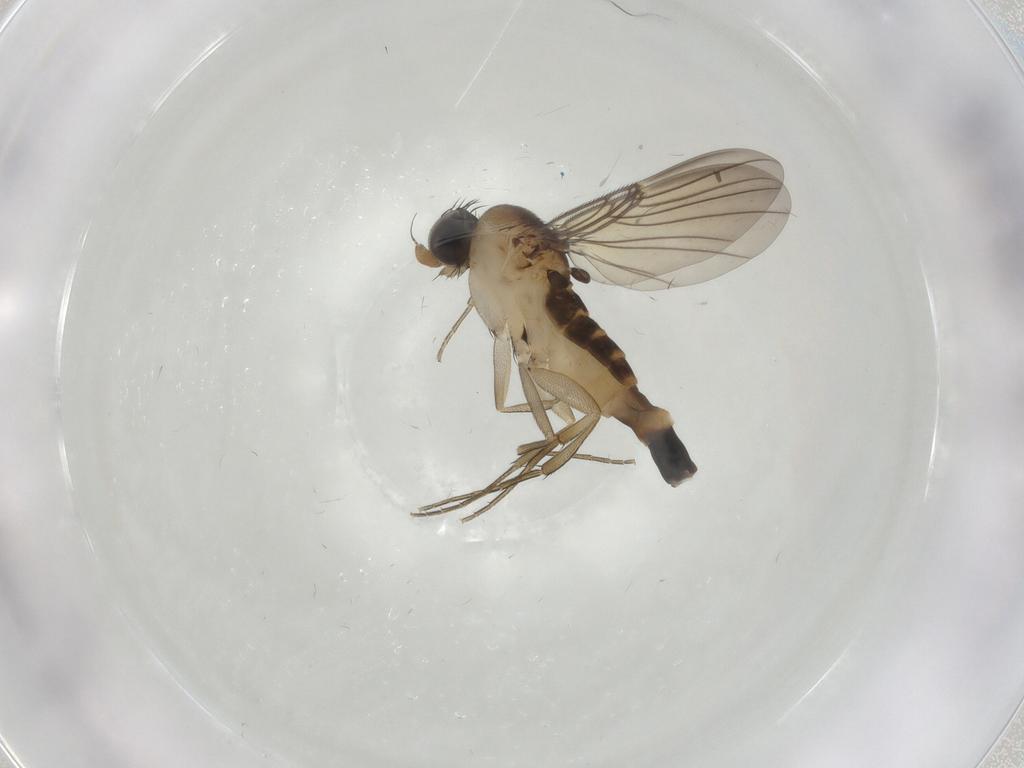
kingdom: Animalia
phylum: Arthropoda
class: Insecta
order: Diptera
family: Phoridae
